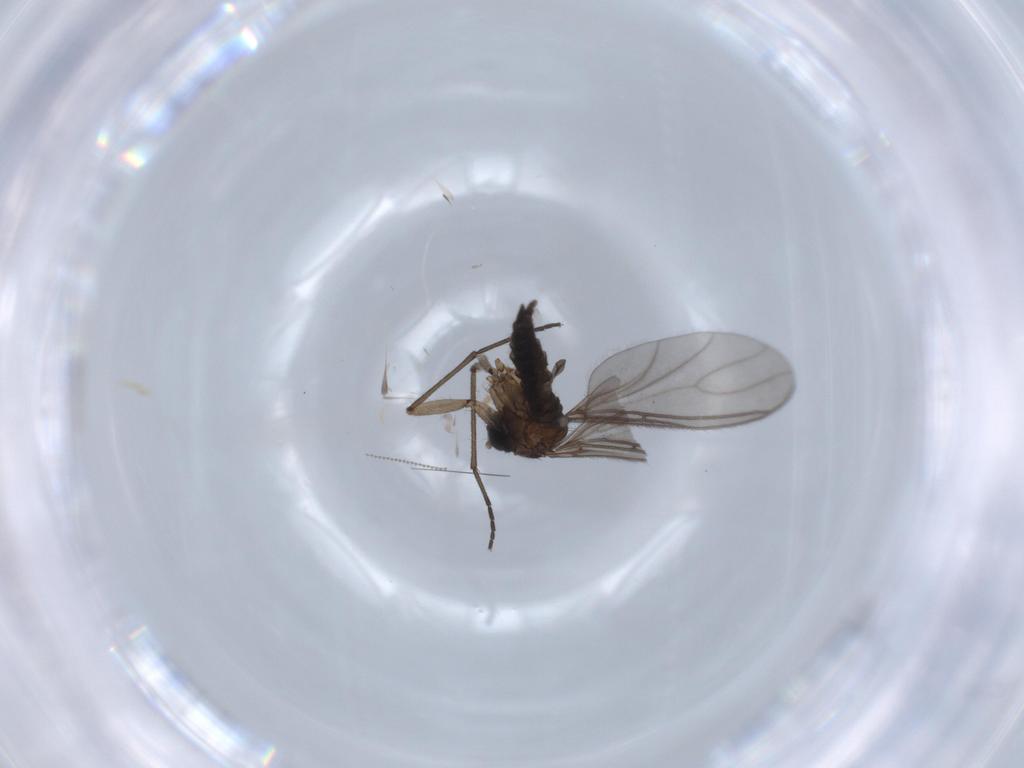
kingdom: Animalia
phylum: Arthropoda
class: Insecta
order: Diptera
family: Sciaridae
